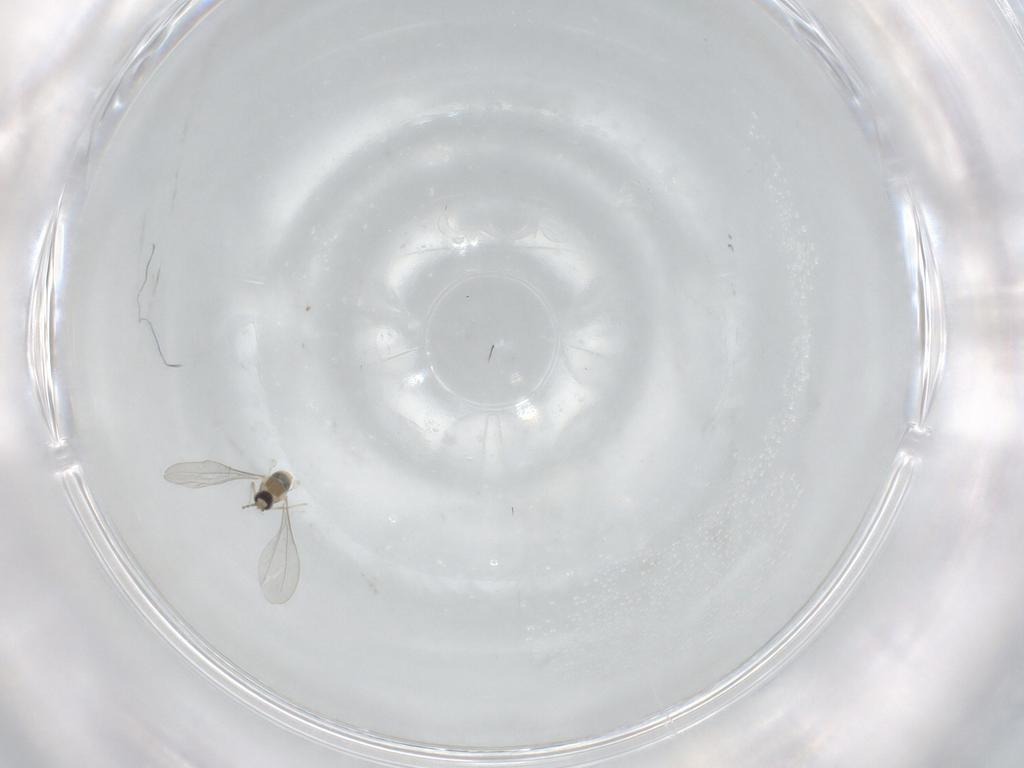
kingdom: Animalia
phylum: Arthropoda
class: Insecta
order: Diptera
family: Cecidomyiidae
